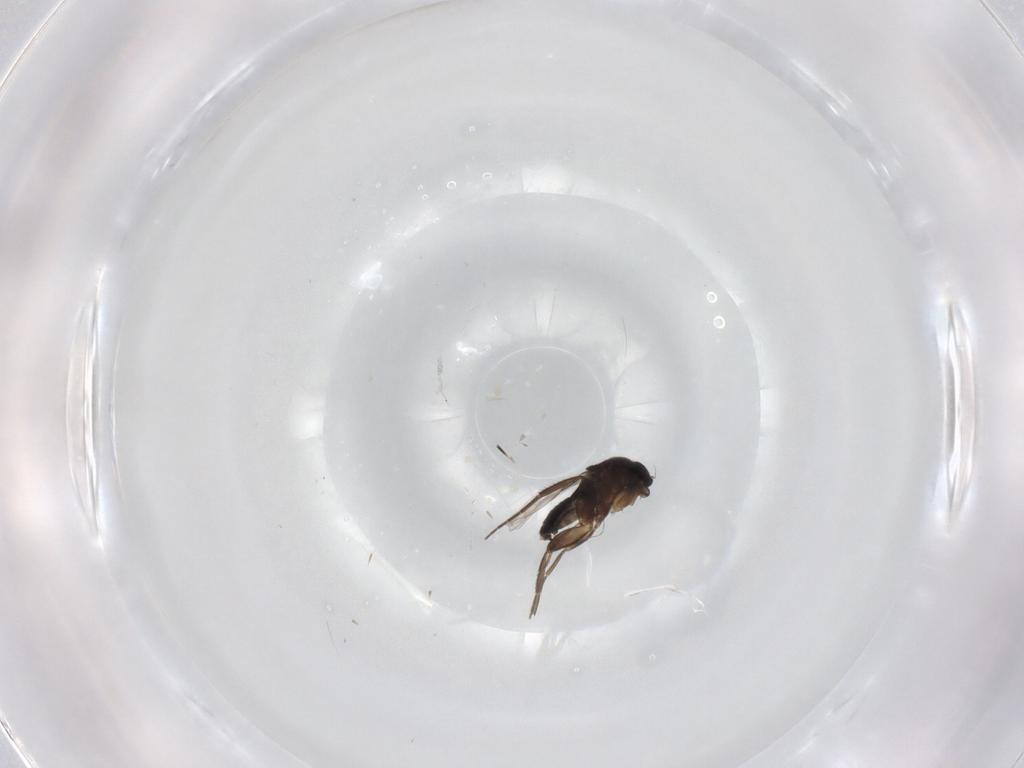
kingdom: Animalia
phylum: Arthropoda
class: Insecta
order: Diptera
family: Phoridae
